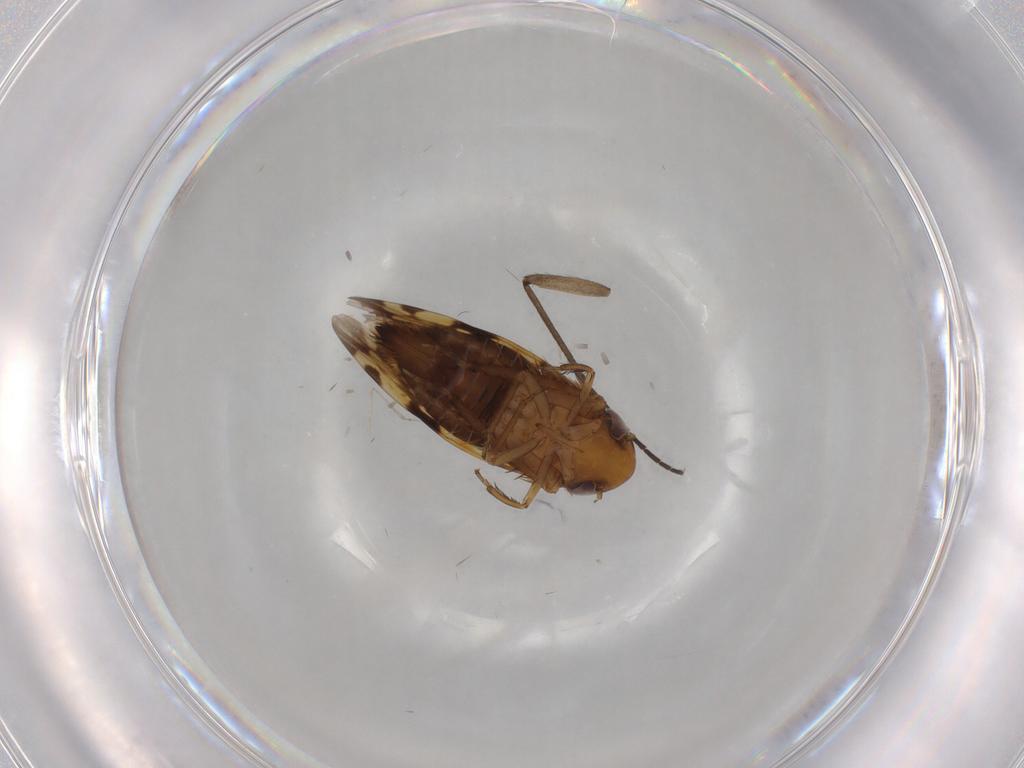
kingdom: Animalia
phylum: Arthropoda
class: Insecta
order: Hemiptera
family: Cicadellidae
